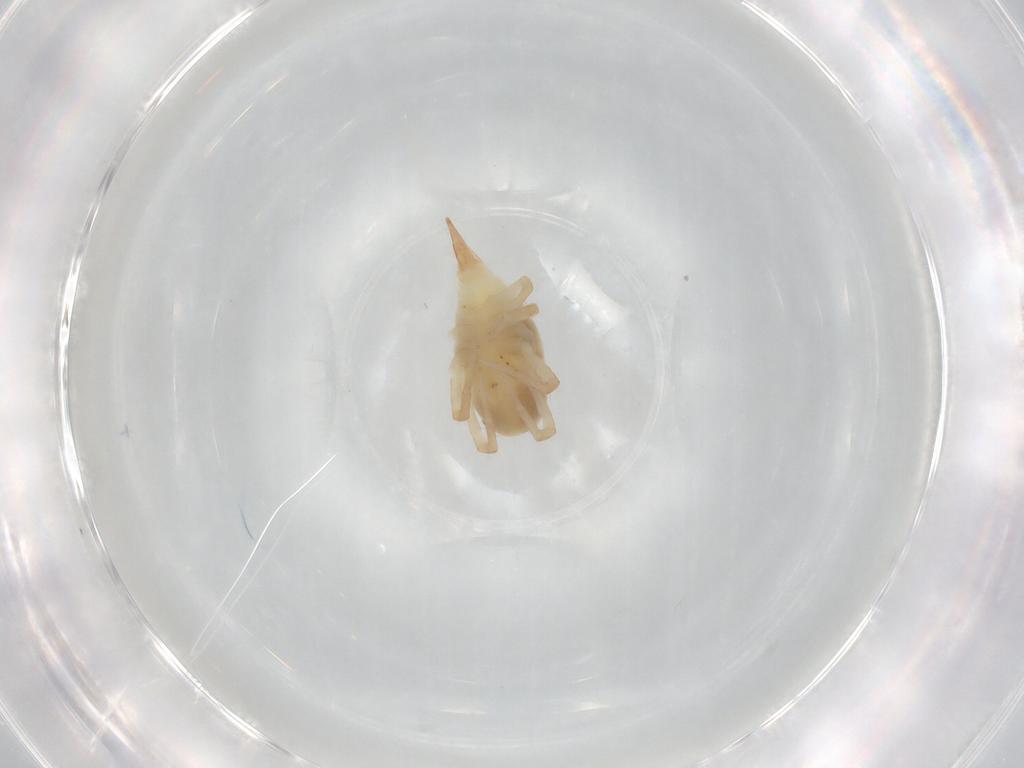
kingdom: Animalia
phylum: Arthropoda
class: Arachnida
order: Trombidiformes
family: Bdellidae
